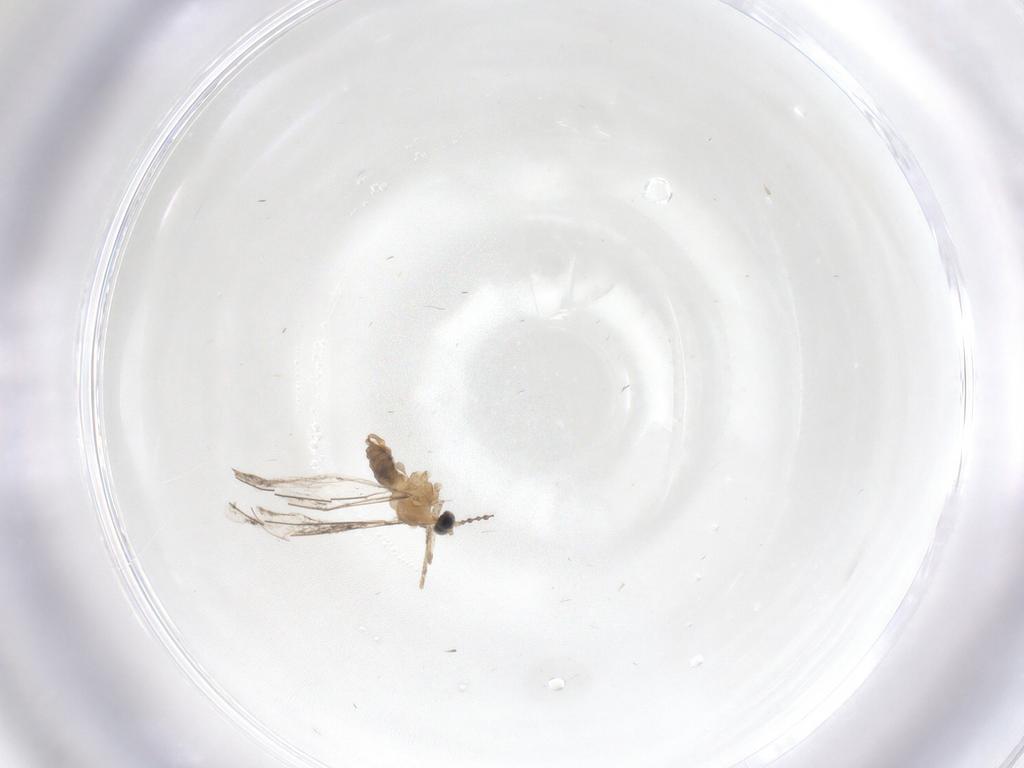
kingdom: Animalia
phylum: Arthropoda
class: Insecta
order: Diptera
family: Cecidomyiidae
